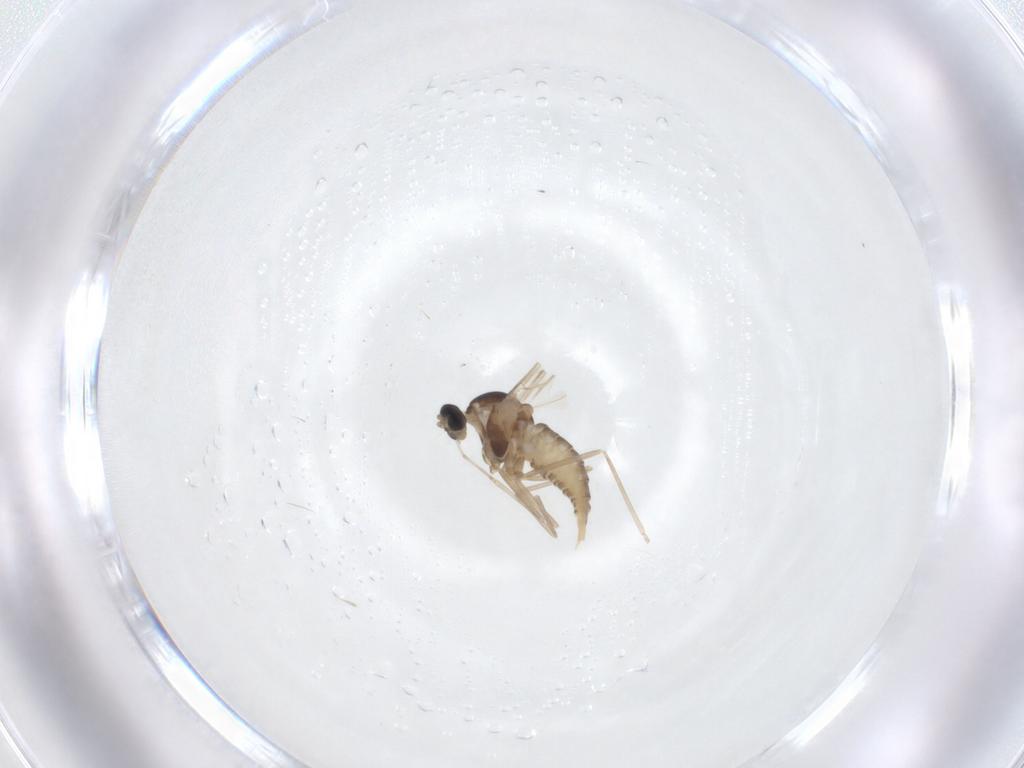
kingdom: Animalia
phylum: Arthropoda
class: Insecta
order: Diptera
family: Cecidomyiidae
